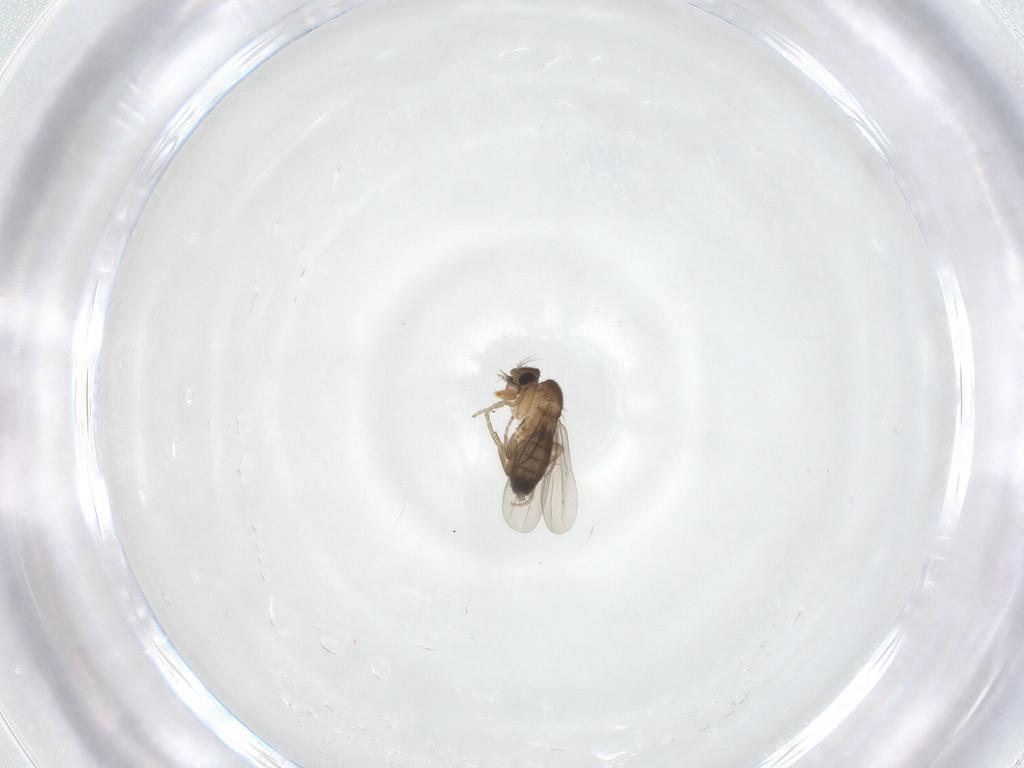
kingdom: Animalia
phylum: Arthropoda
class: Insecta
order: Diptera
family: Phoridae
